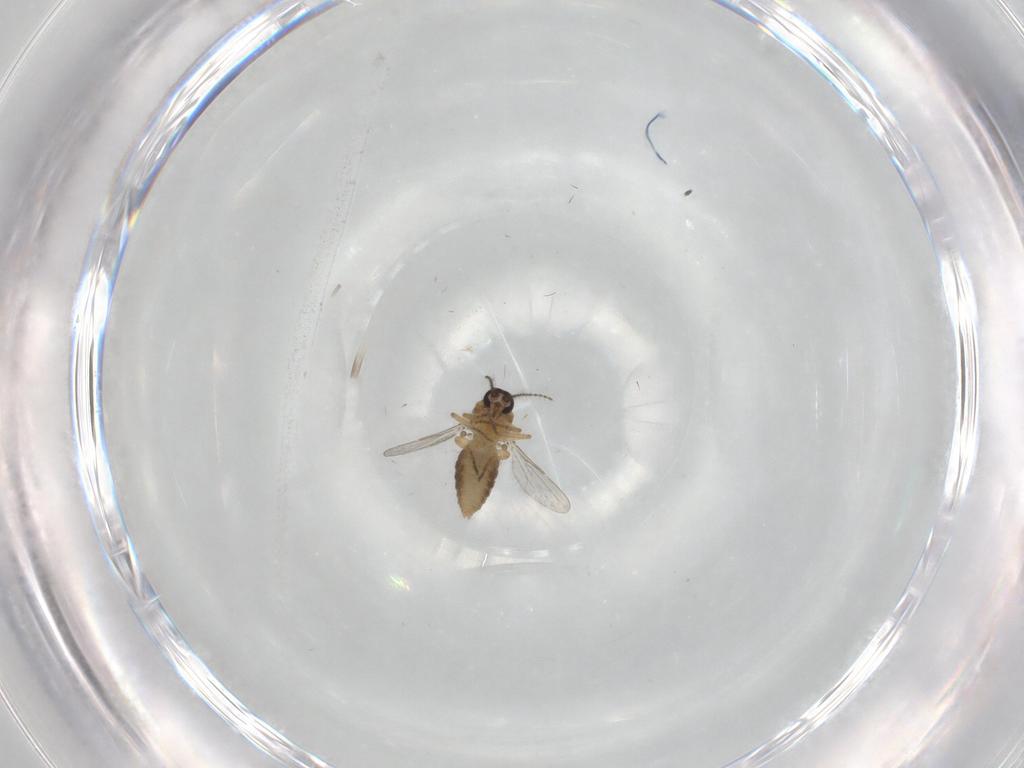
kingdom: Animalia
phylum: Arthropoda
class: Insecta
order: Diptera
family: Ceratopogonidae
